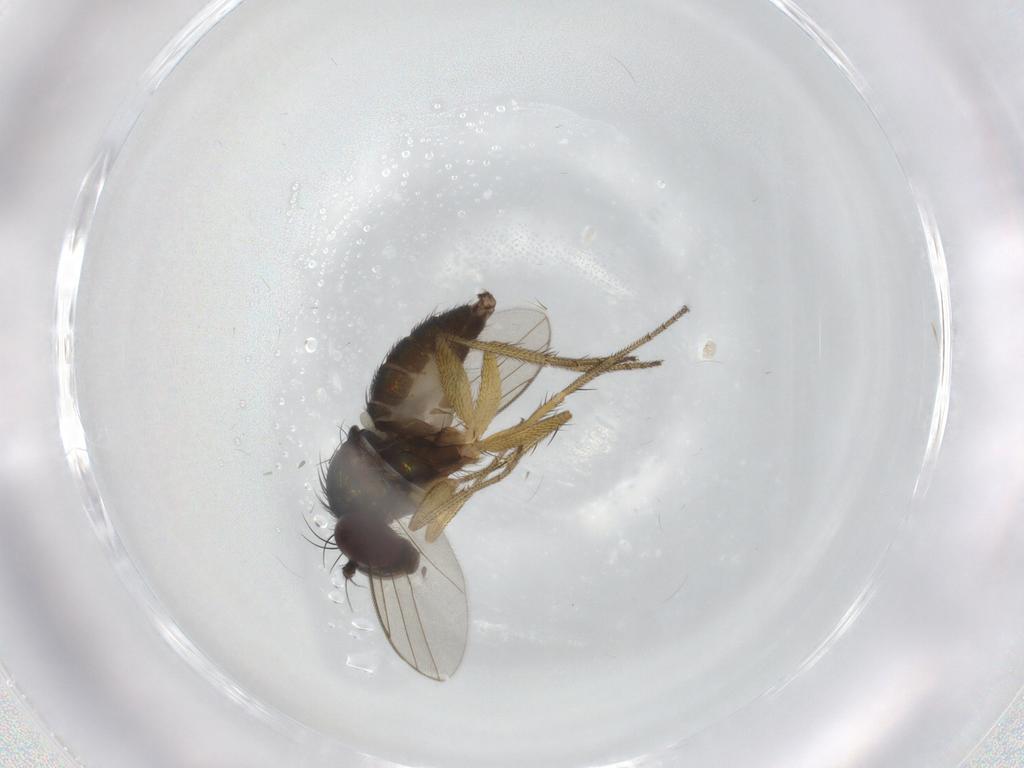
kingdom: Animalia
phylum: Arthropoda
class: Insecta
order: Diptera
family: Dolichopodidae
